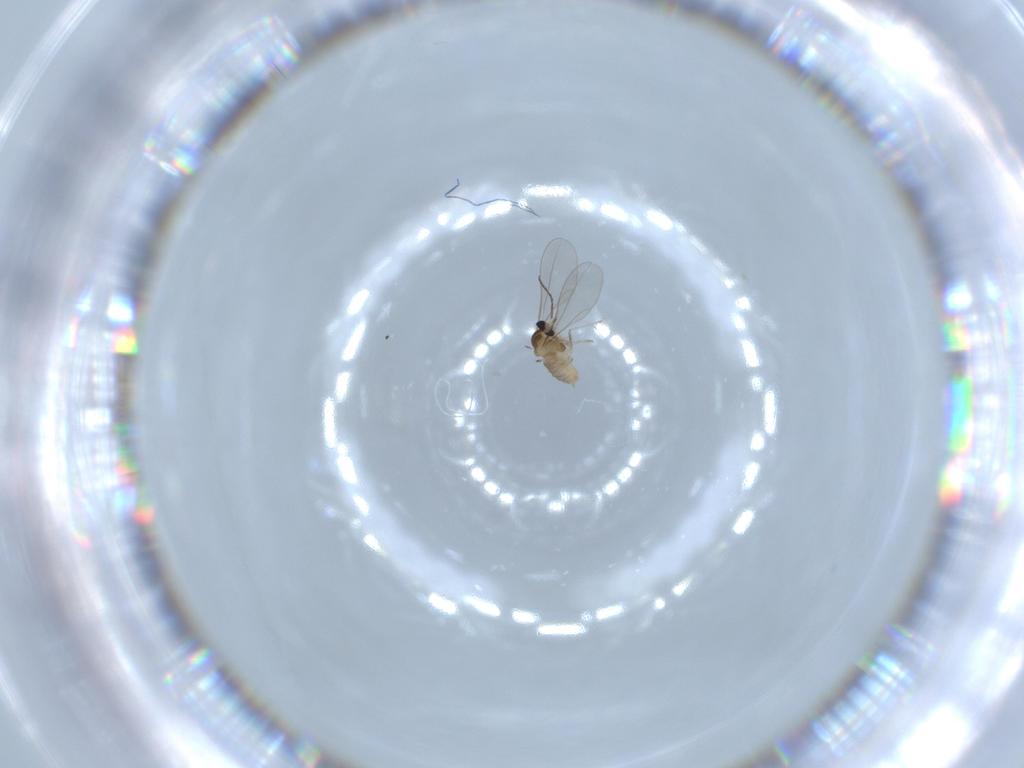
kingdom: Animalia
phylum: Arthropoda
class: Insecta
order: Diptera
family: Cecidomyiidae
